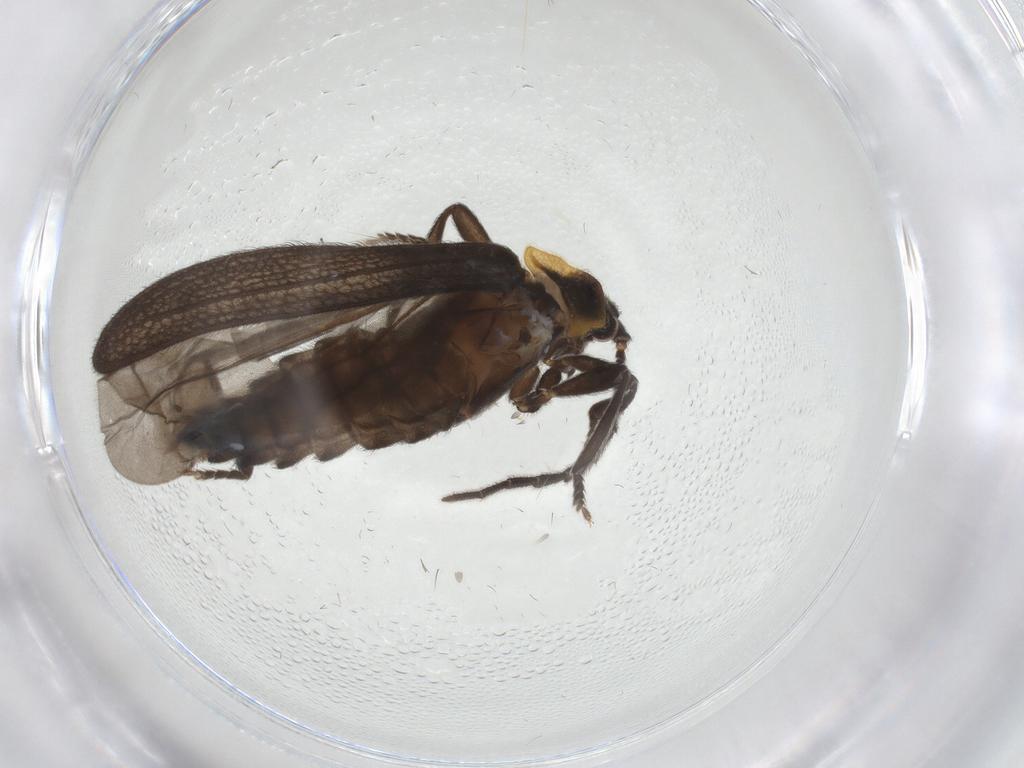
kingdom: Animalia
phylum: Arthropoda
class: Insecta
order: Coleoptera
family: Lycidae
